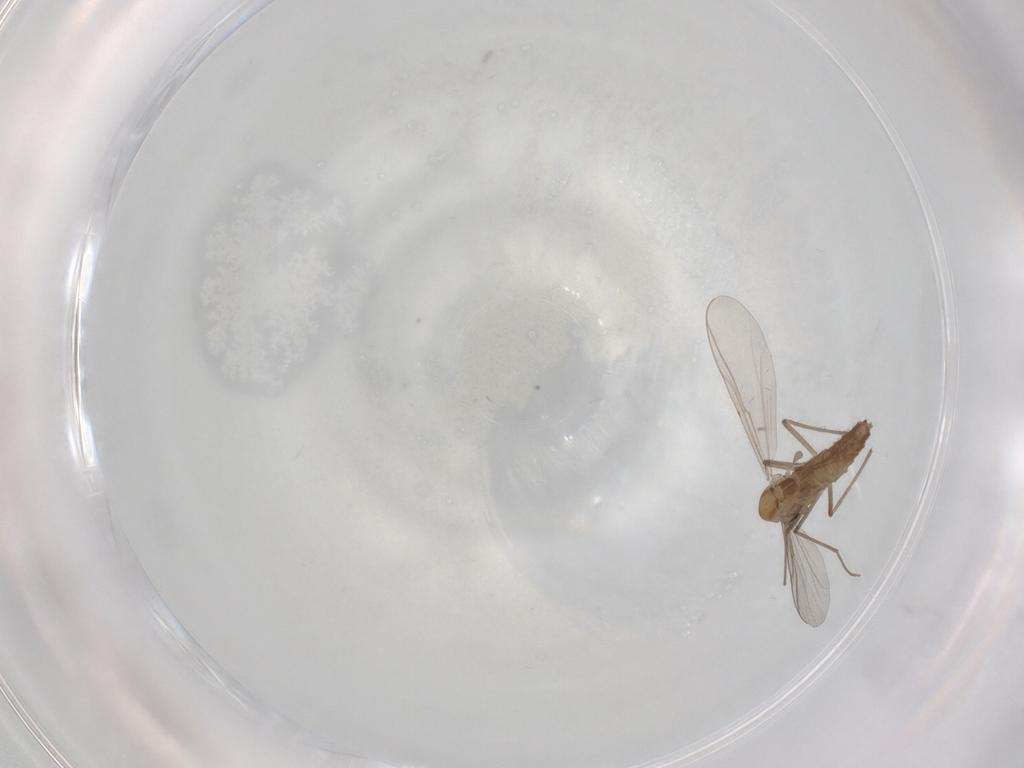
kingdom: Animalia
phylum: Arthropoda
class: Insecta
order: Diptera
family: Chironomidae
